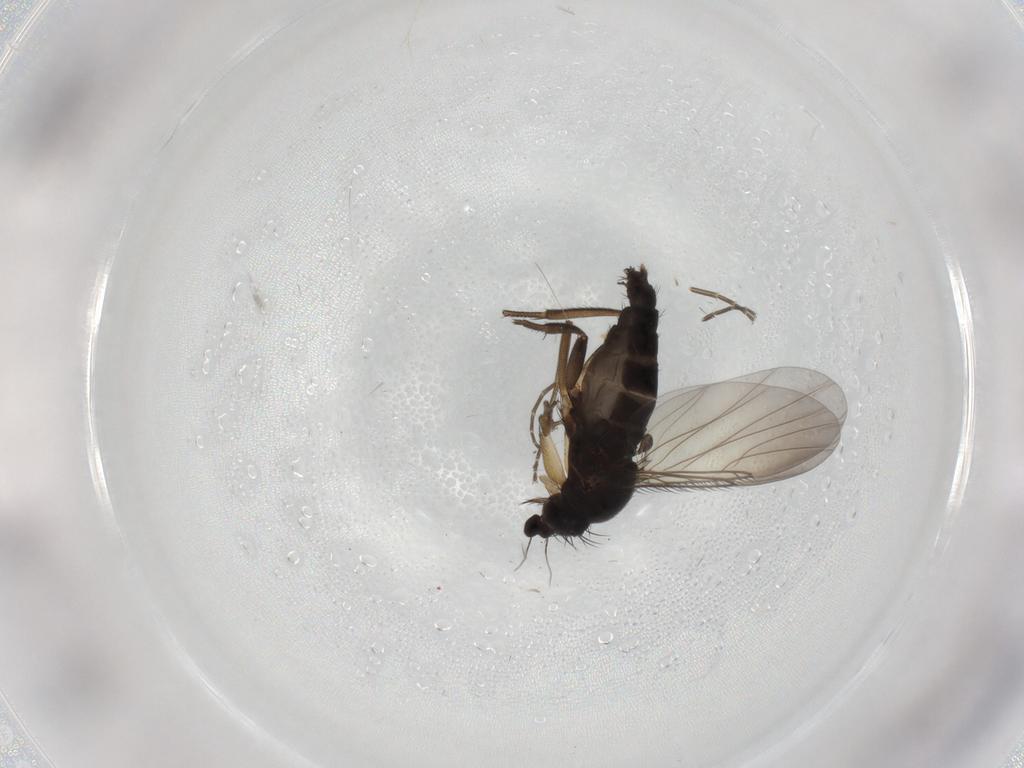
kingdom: Animalia
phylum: Arthropoda
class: Insecta
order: Diptera
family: Phoridae
